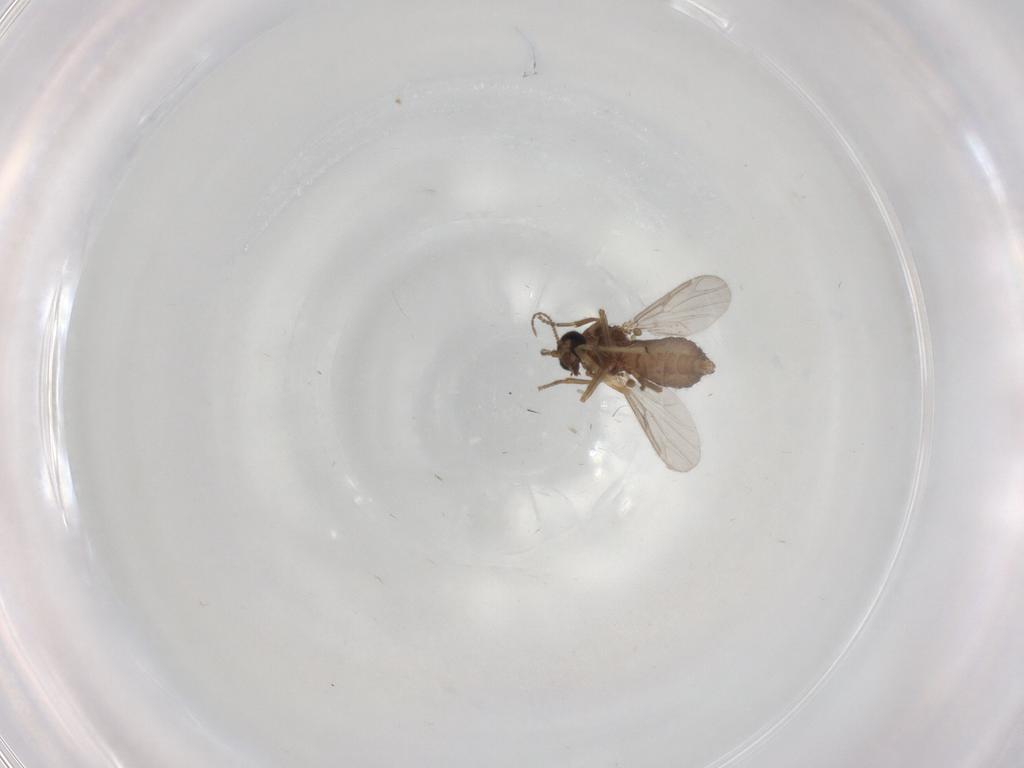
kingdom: Animalia
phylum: Arthropoda
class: Insecta
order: Diptera
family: Ceratopogonidae
